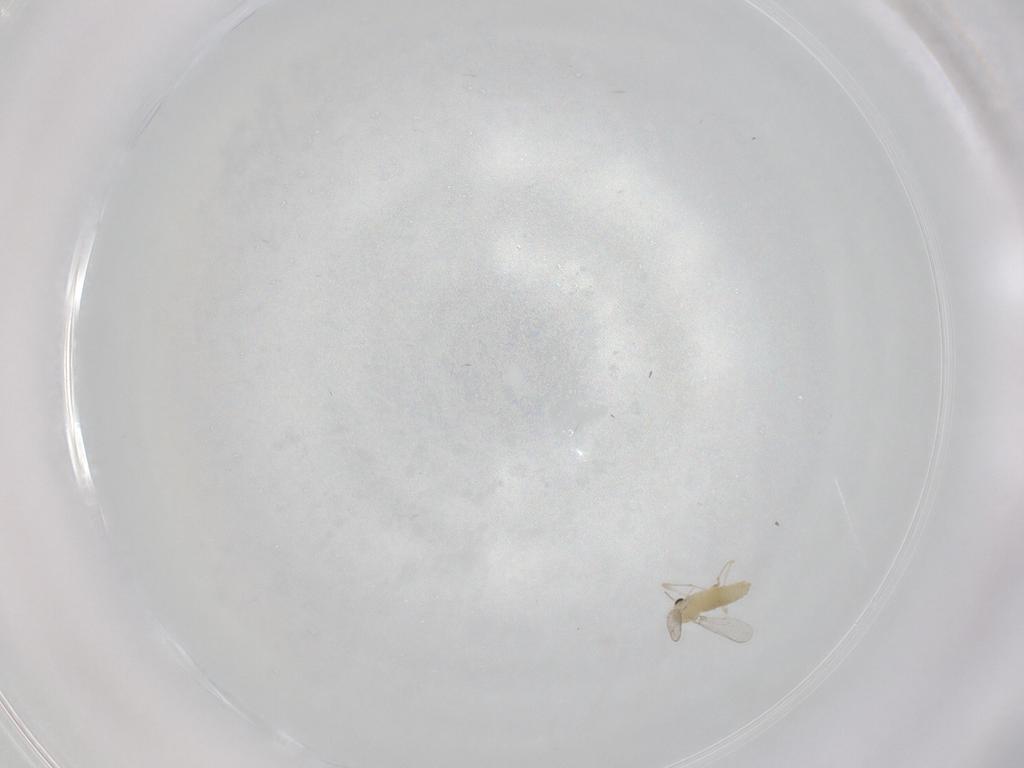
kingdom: Animalia
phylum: Arthropoda
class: Insecta
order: Diptera
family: Chironomidae
